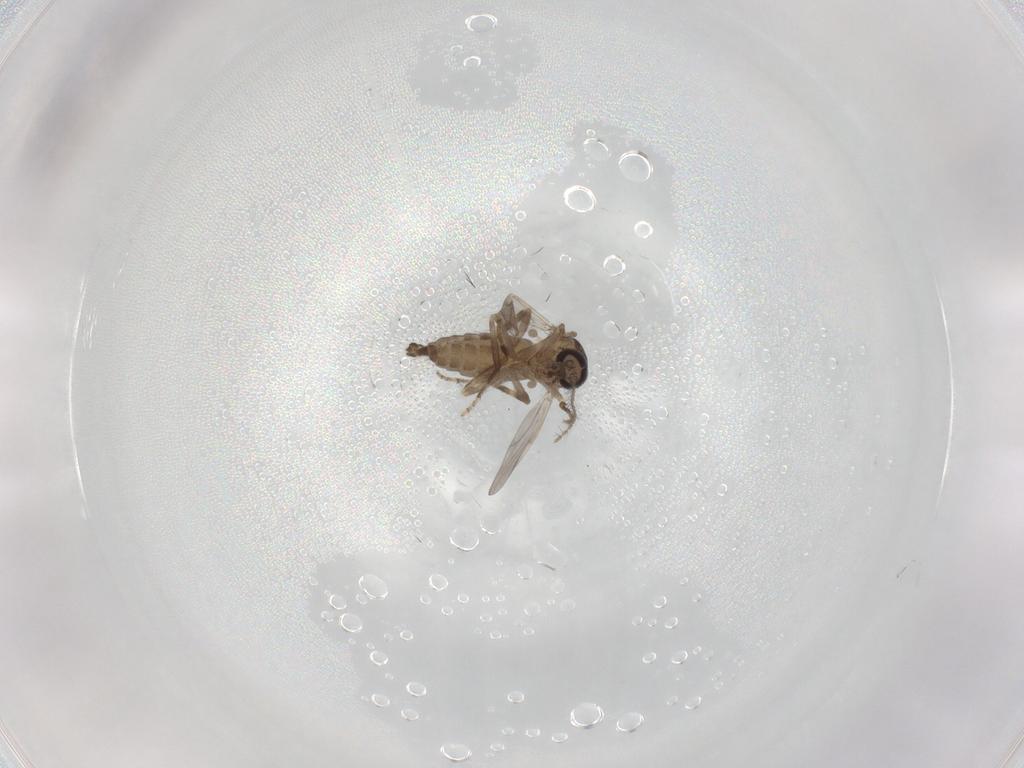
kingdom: Animalia
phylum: Arthropoda
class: Insecta
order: Diptera
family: Ceratopogonidae
